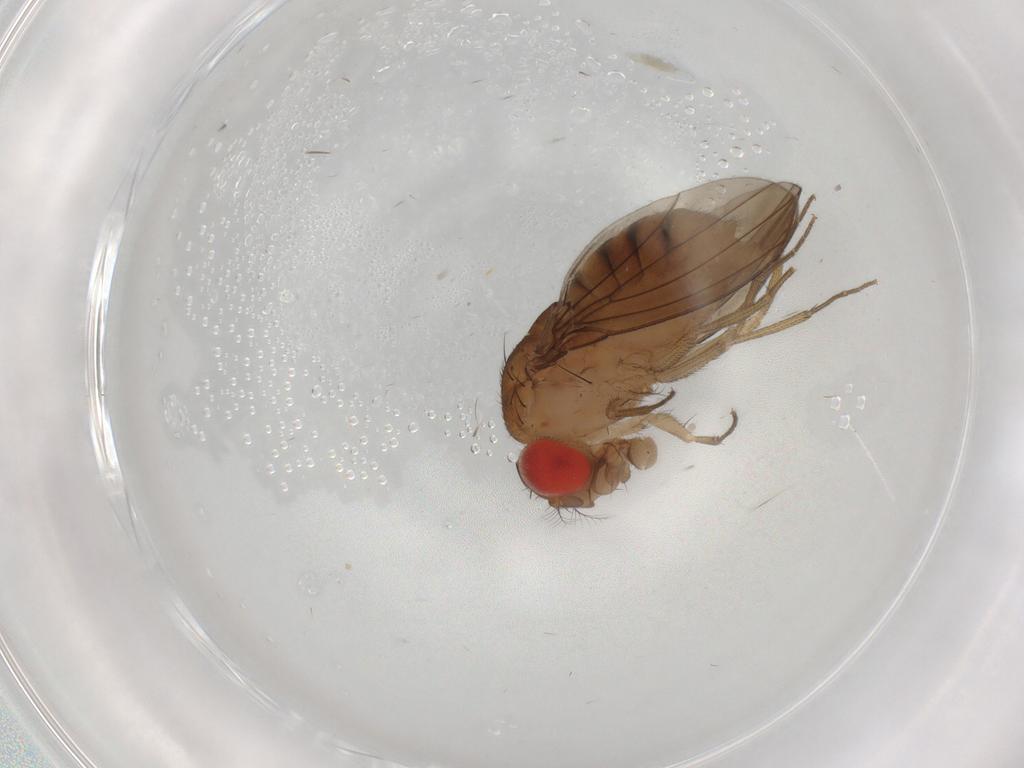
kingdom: Animalia
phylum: Arthropoda
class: Insecta
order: Diptera
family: Drosophilidae
